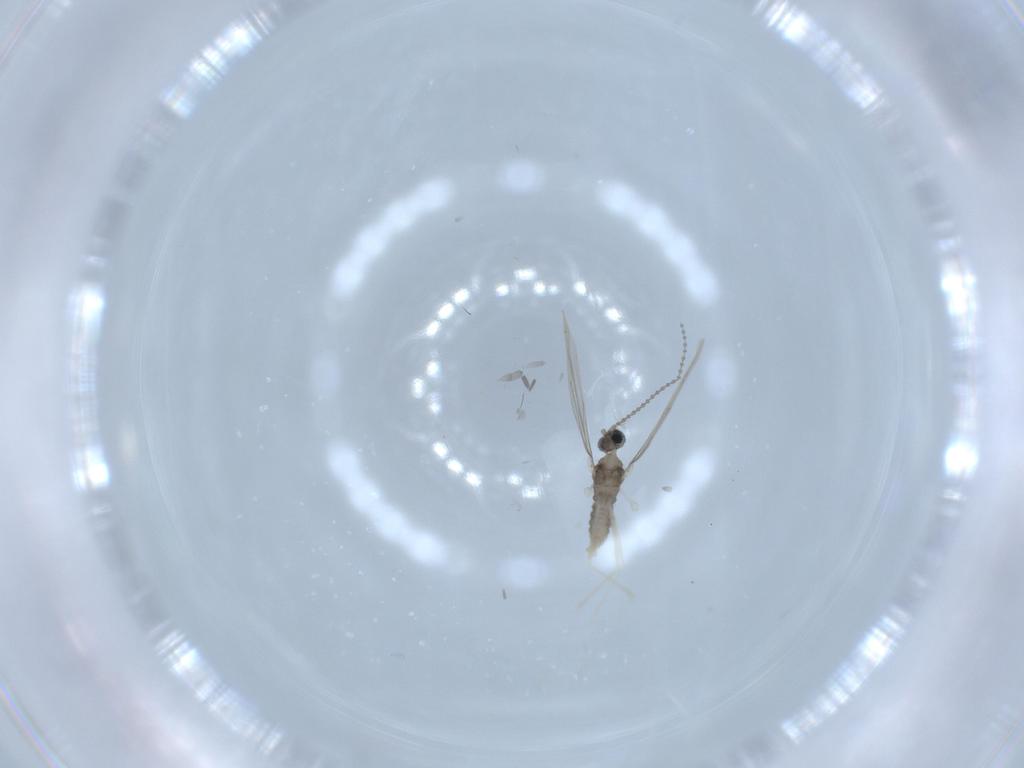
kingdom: Animalia
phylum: Arthropoda
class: Insecta
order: Diptera
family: Cecidomyiidae
